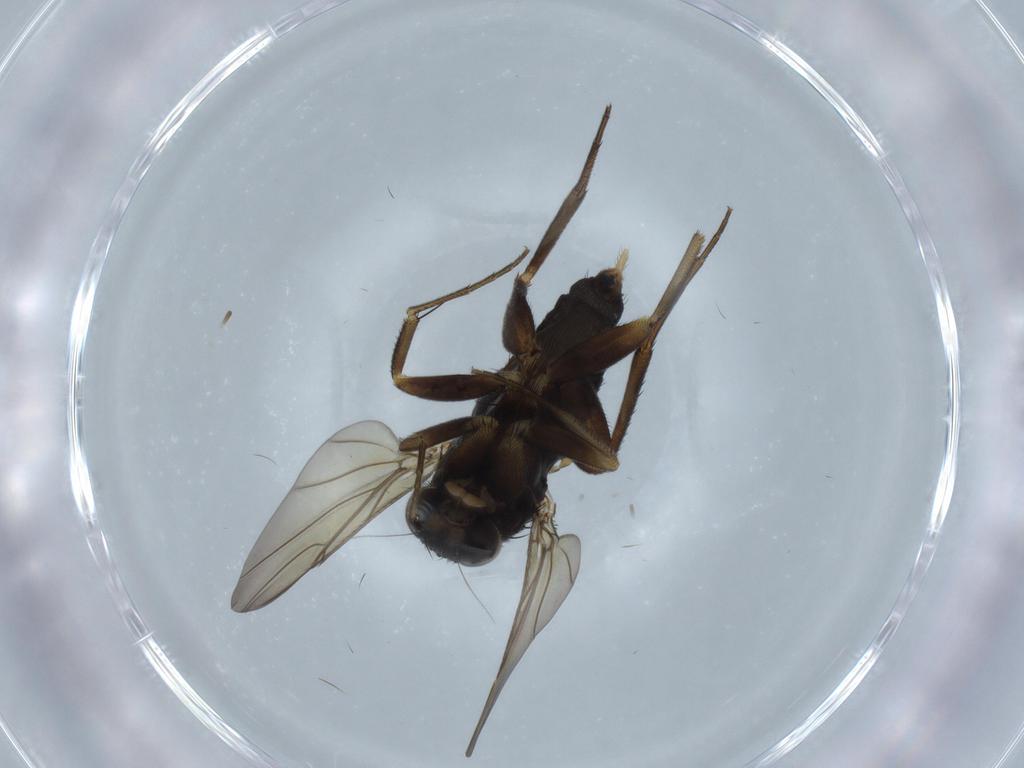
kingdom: Animalia
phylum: Arthropoda
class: Insecta
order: Diptera
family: Phoridae
